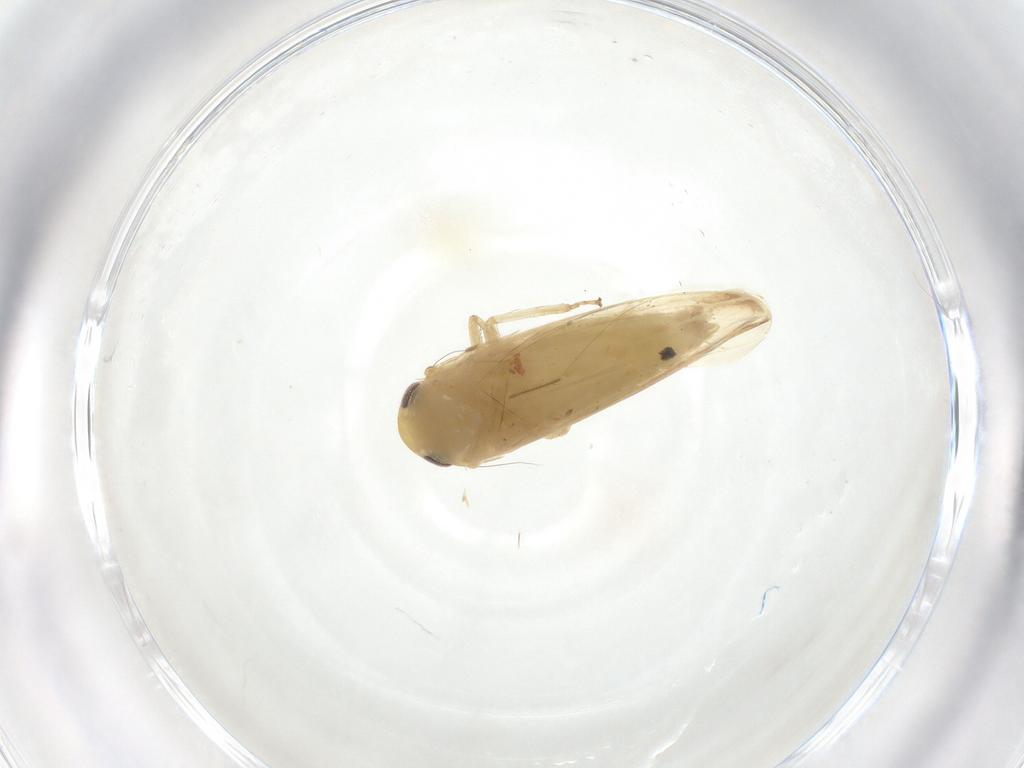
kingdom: Animalia
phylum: Arthropoda
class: Insecta
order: Hemiptera
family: Cicadellidae
